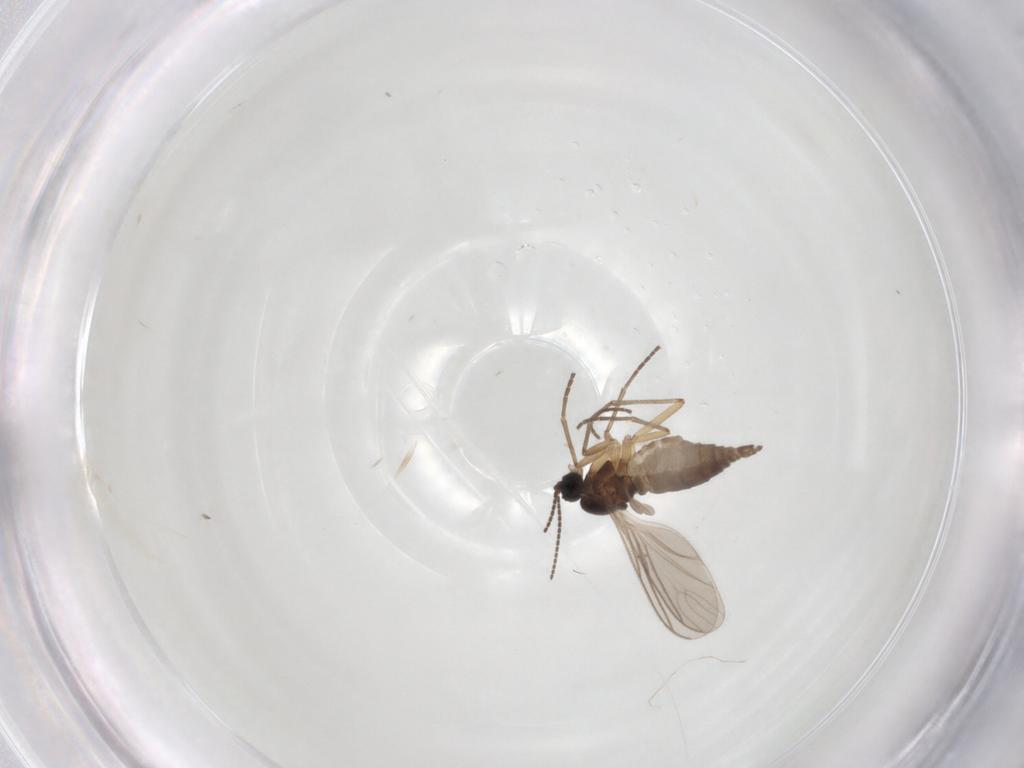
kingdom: Animalia
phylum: Arthropoda
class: Insecta
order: Diptera
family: Sciaridae
